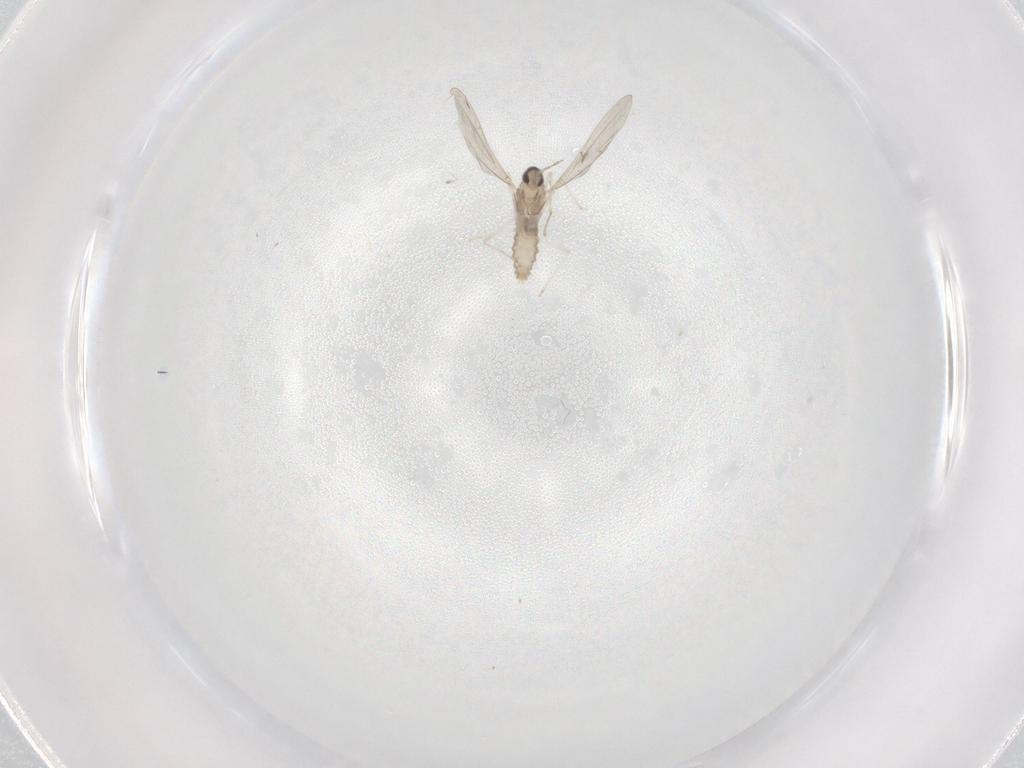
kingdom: Animalia
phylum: Arthropoda
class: Insecta
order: Diptera
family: Cecidomyiidae
